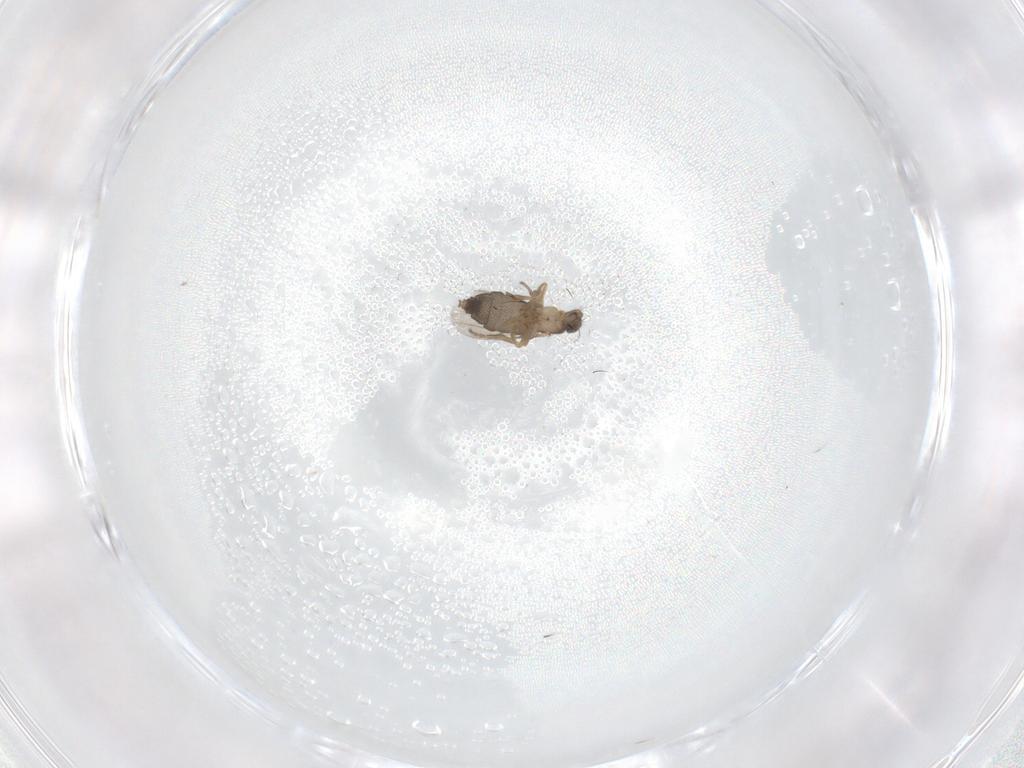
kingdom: Animalia
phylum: Arthropoda
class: Insecta
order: Diptera
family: Phoridae
